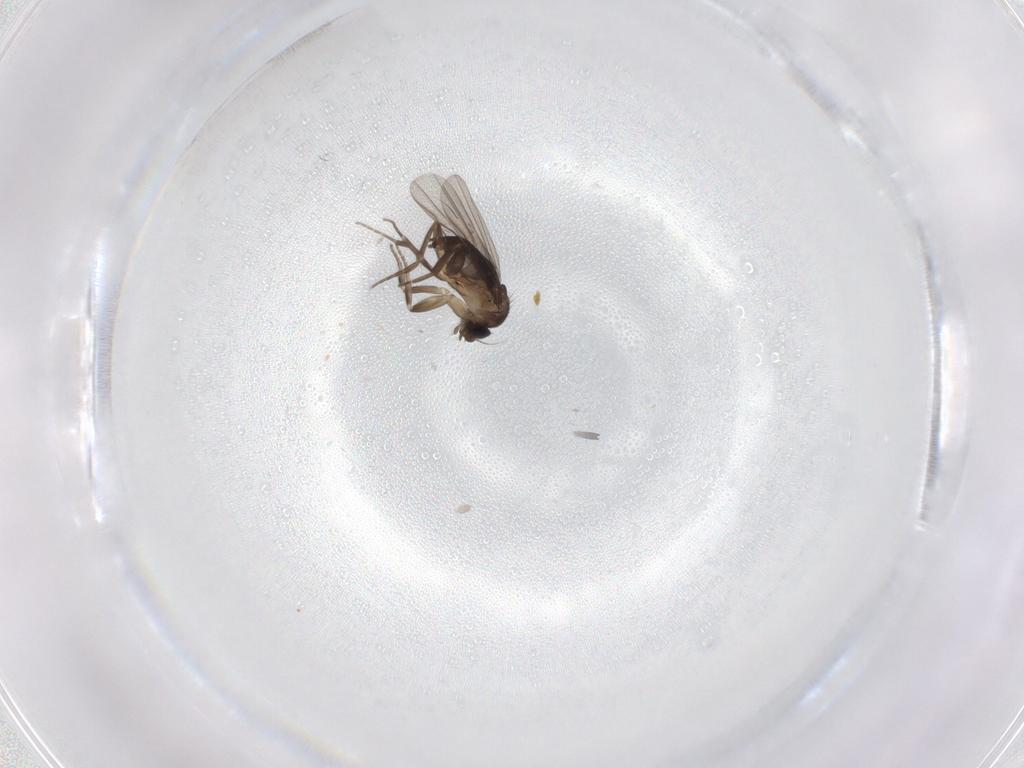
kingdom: Animalia
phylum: Arthropoda
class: Insecta
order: Diptera
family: Phoridae
